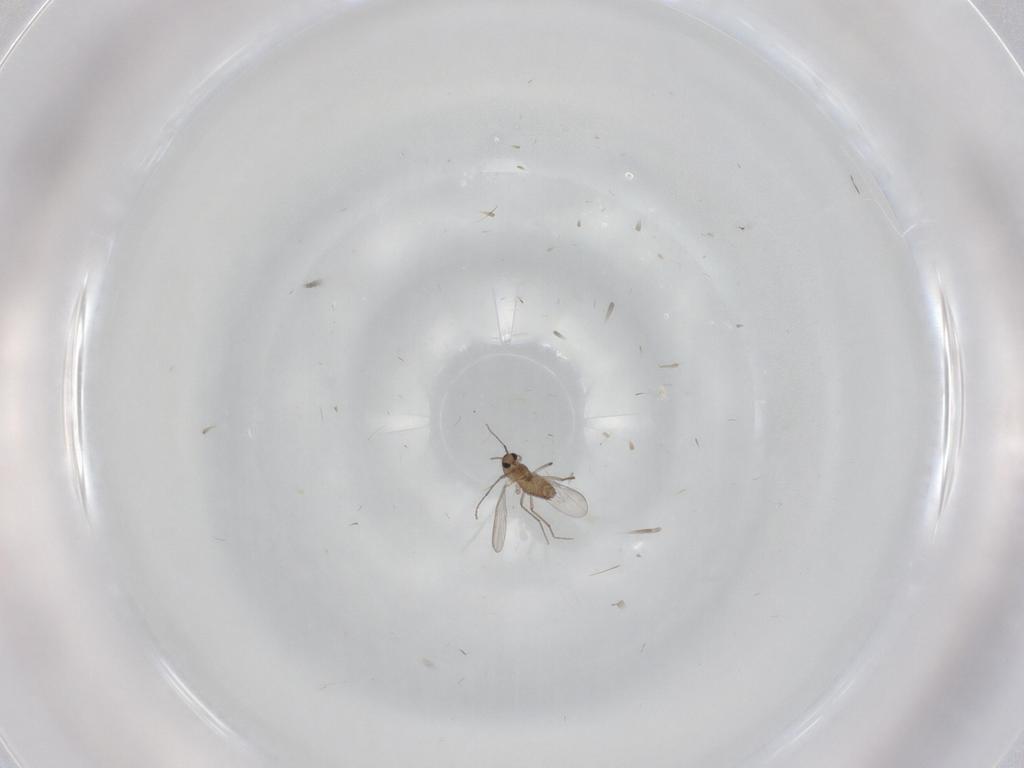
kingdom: Animalia
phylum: Arthropoda
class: Insecta
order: Diptera
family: Chironomidae
